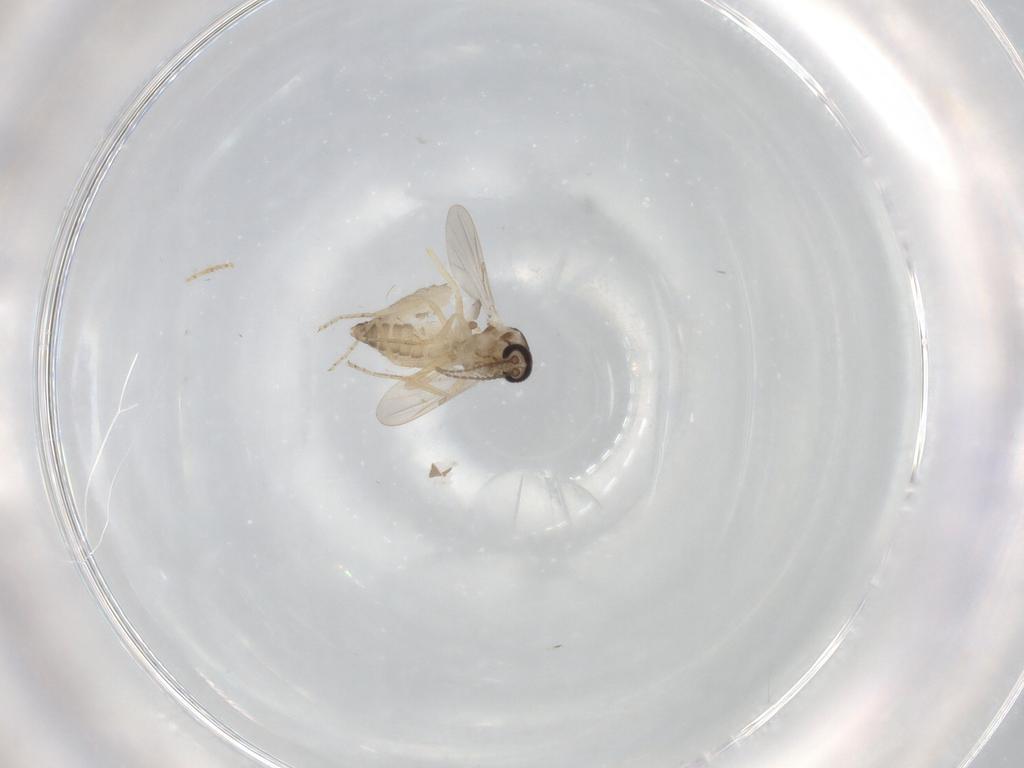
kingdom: Animalia
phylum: Arthropoda
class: Insecta
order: Diptera
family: Ceratopogonidae
